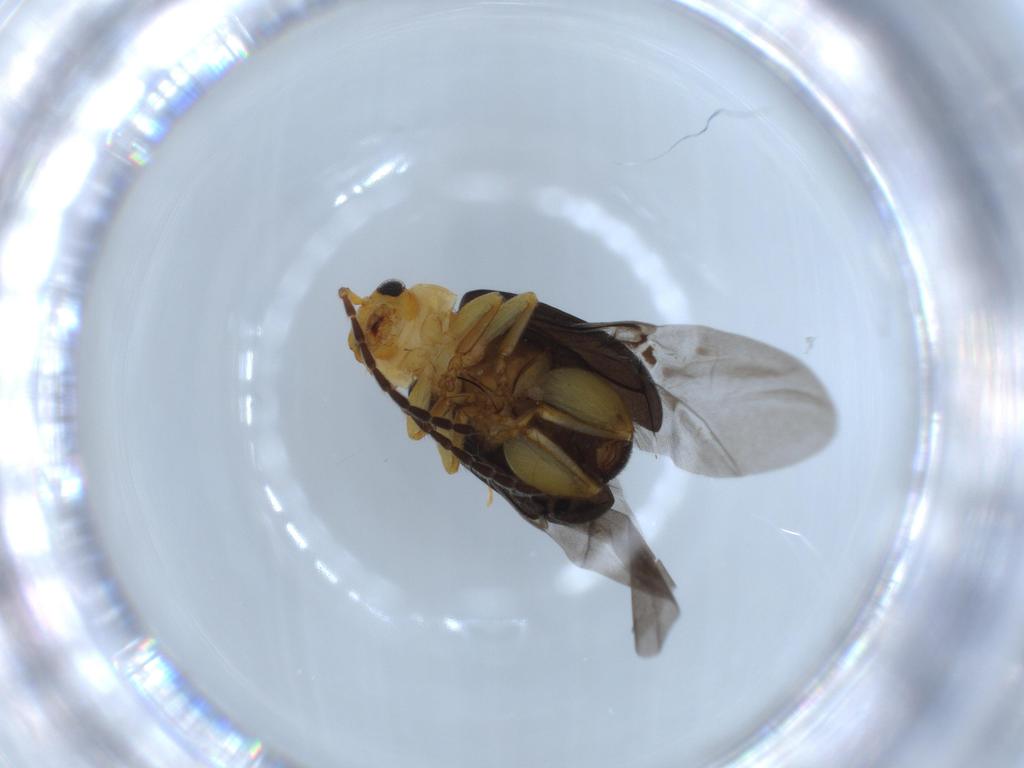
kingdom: Animalia
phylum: Arthropoda
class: Insecta
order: Coleoptera
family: Chrysomelidae
